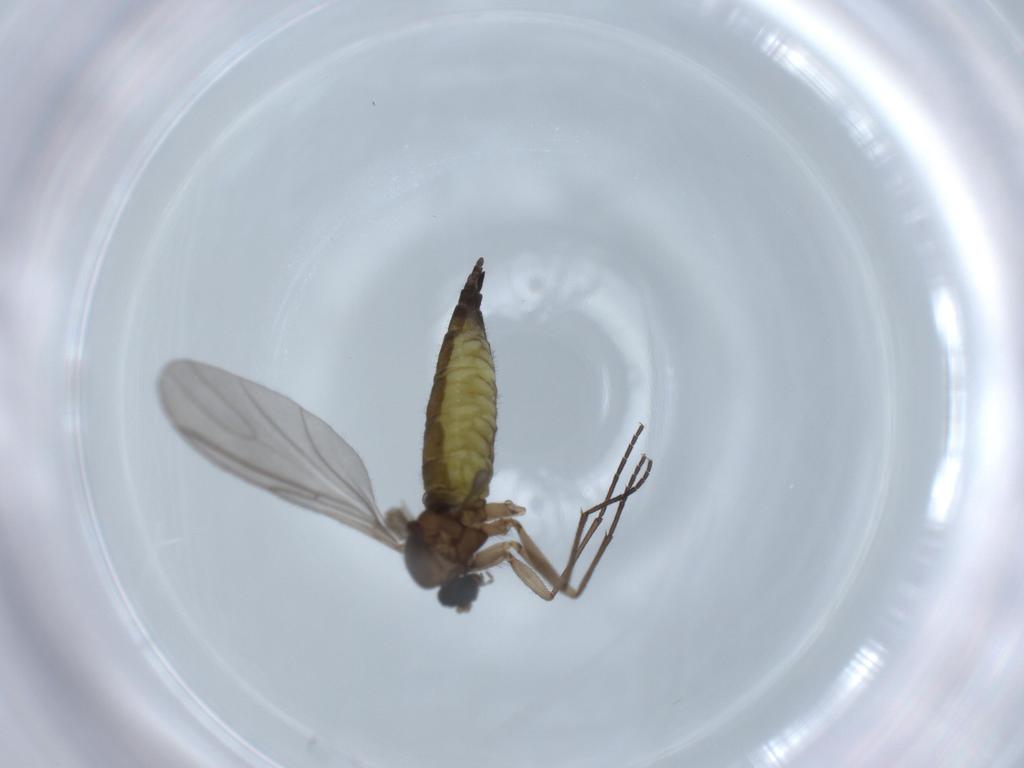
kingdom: Animalia
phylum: Arthropoda
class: Insecta
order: Diptera
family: Sciaridae
